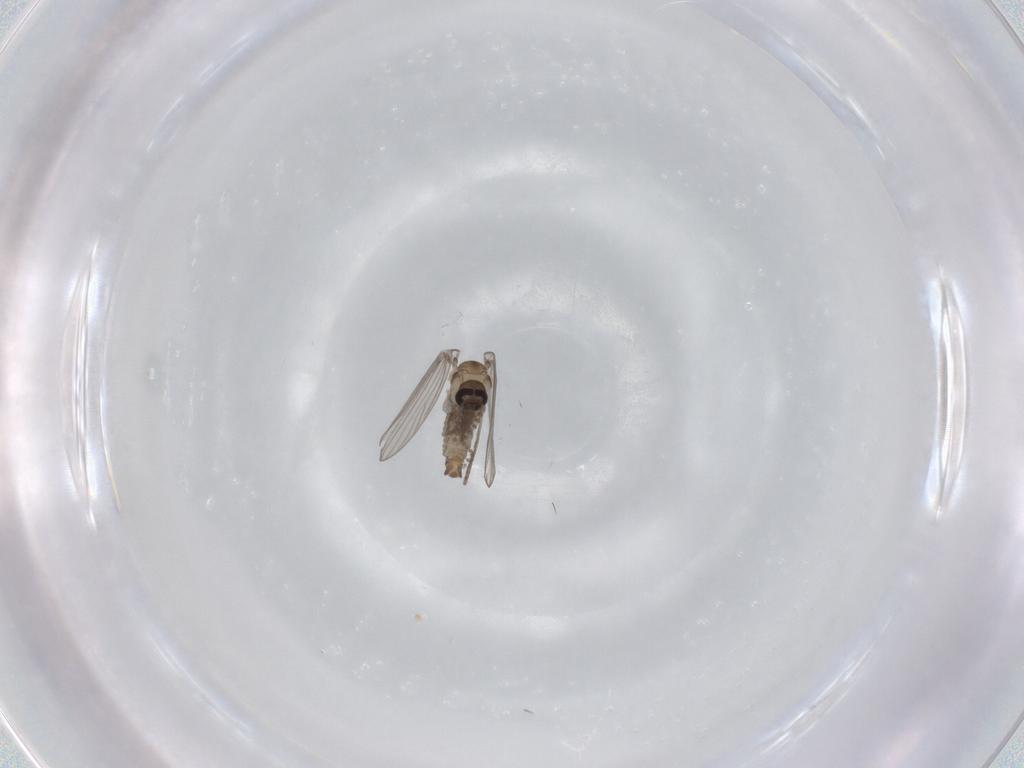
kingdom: Animalia
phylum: Arthropoda
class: Insecta
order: Diptera
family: Psychodidae
